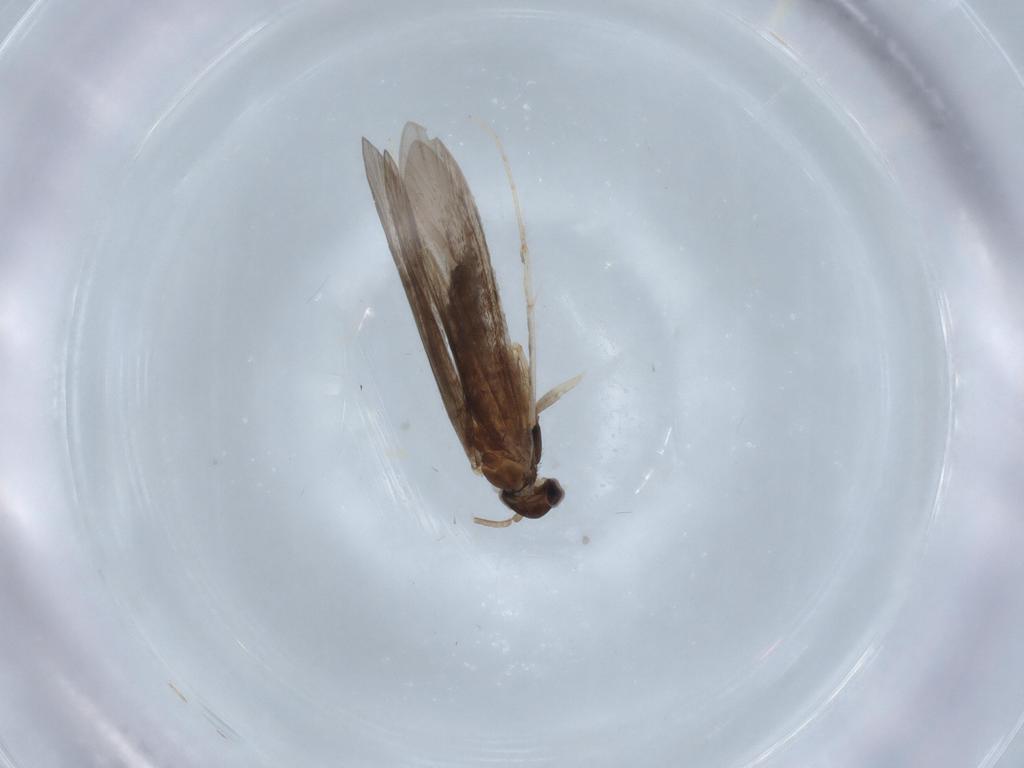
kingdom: Animalia
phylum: Arthropoda
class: Insecta
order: Trichoptera
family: Xiphocentronidae
